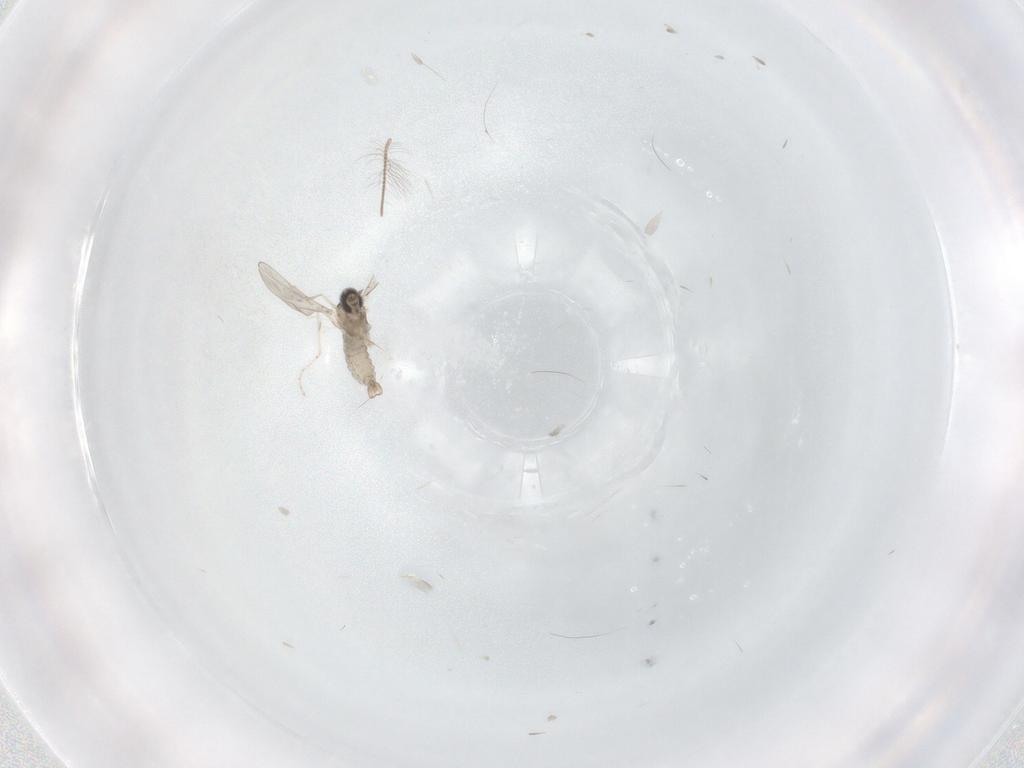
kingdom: Animalia
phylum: Arthropoda
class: Insecta
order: Diptera
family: Cecidomyiidae
